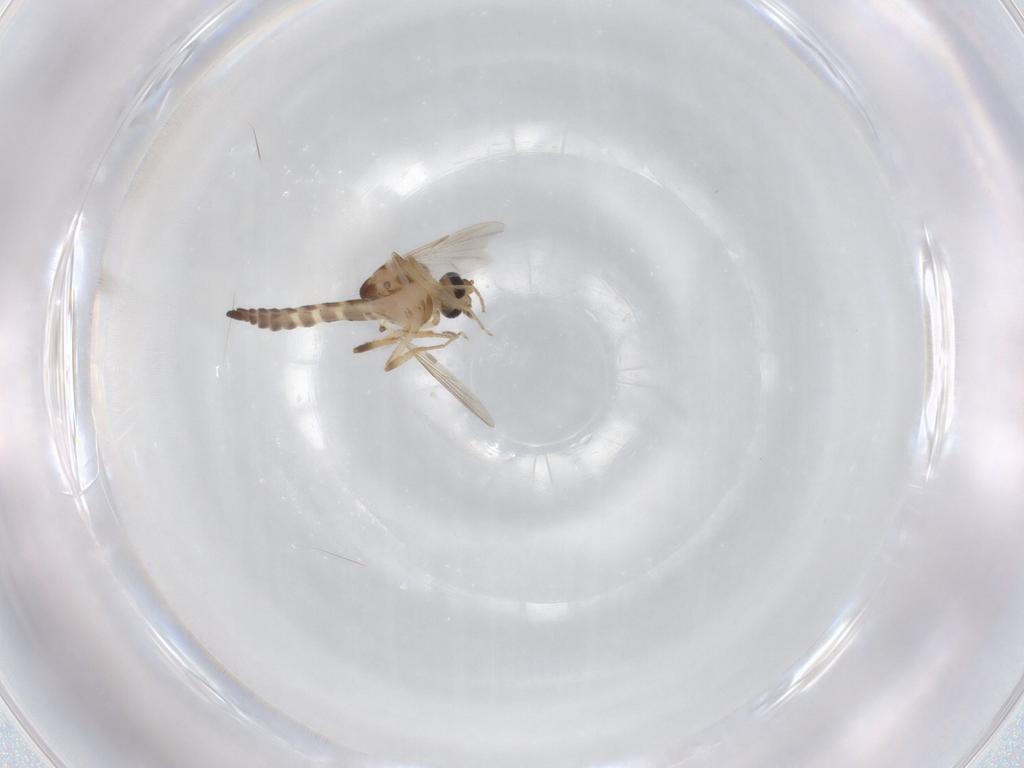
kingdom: Animalia
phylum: Arthropoda
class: Insecta
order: Diptera
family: Ceratopogonidae
